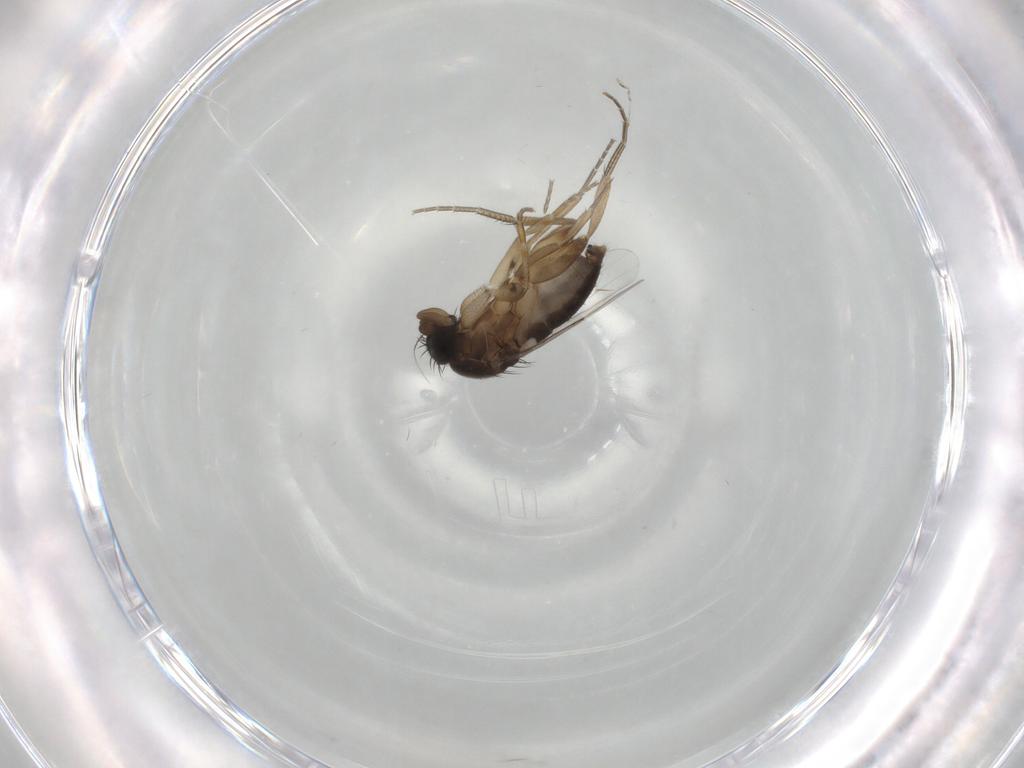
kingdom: Animalia
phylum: Arthropoda
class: Insecta
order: Diptera
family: Phoridae
